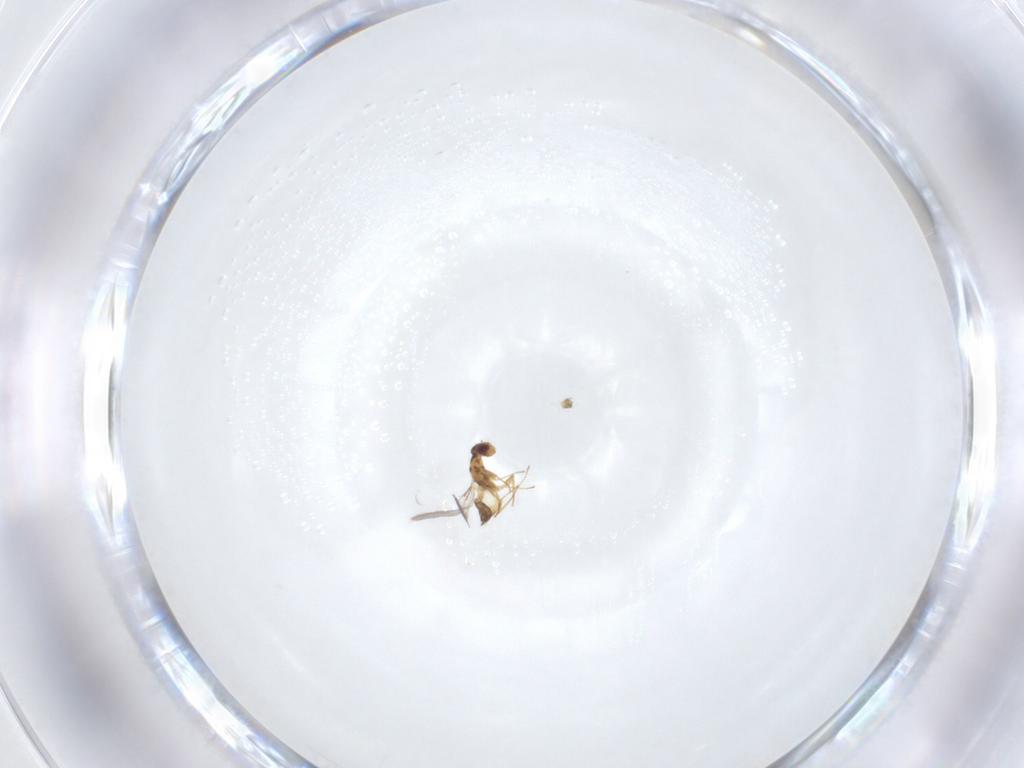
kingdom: Animalia
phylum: Arthropoda
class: Insecta
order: Hymenoptera
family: Mymaridae
